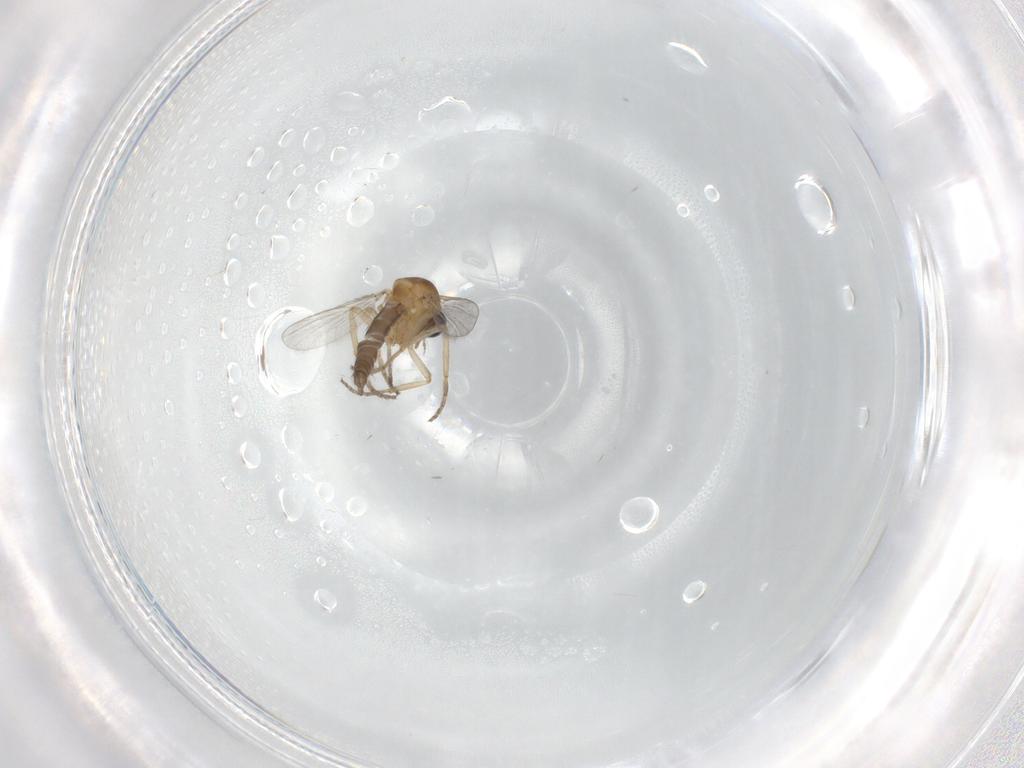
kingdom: Animalia
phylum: Arthropoda
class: Insecta
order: Diptera
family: Ceratopogonidae
